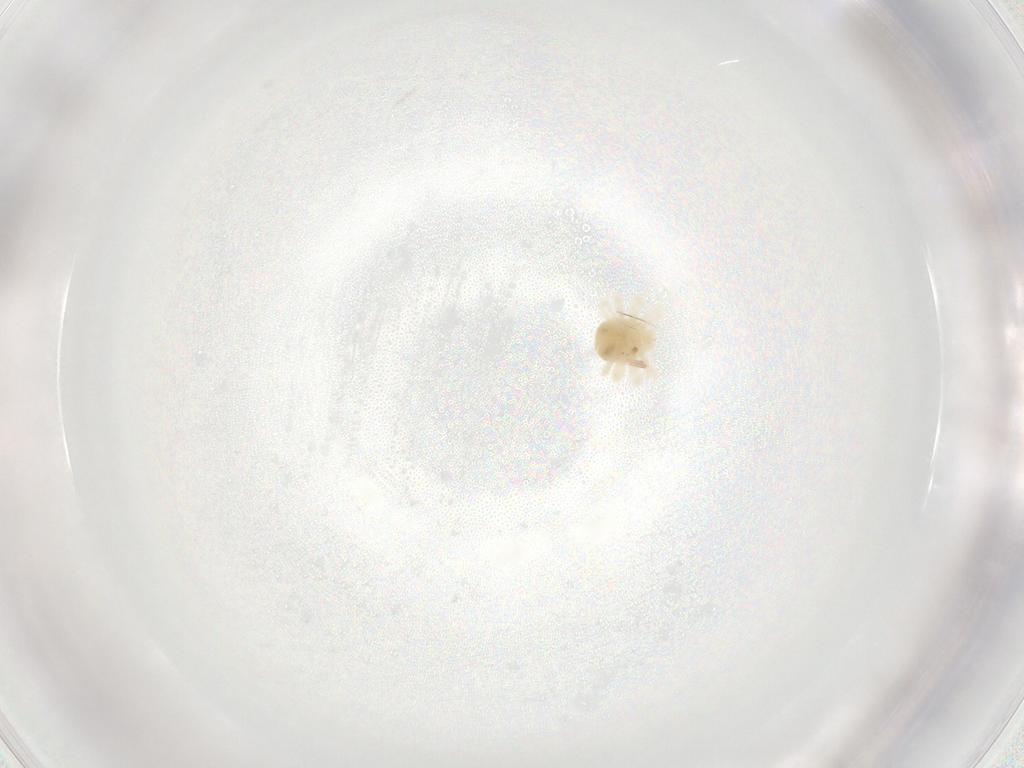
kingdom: Animalia
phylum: Arthropoda
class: Arachnida
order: Trombidiformes
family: Anystidae
